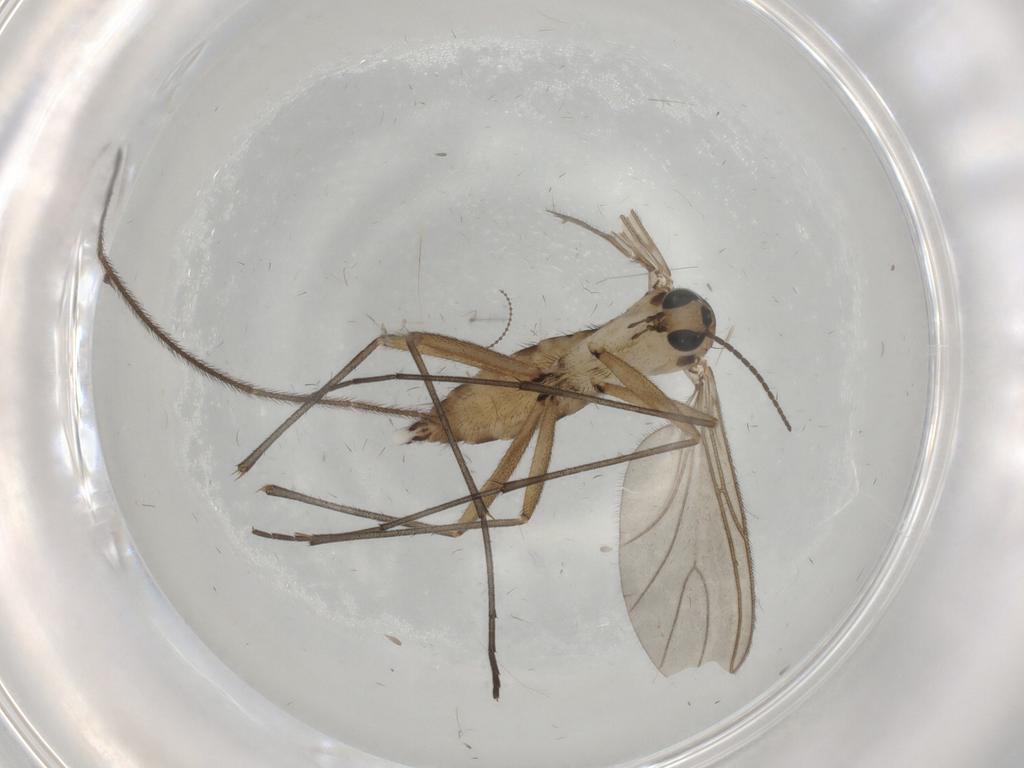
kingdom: Animalia
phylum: Arthropoda
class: Insecta
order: Diptera
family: Sciaridae
